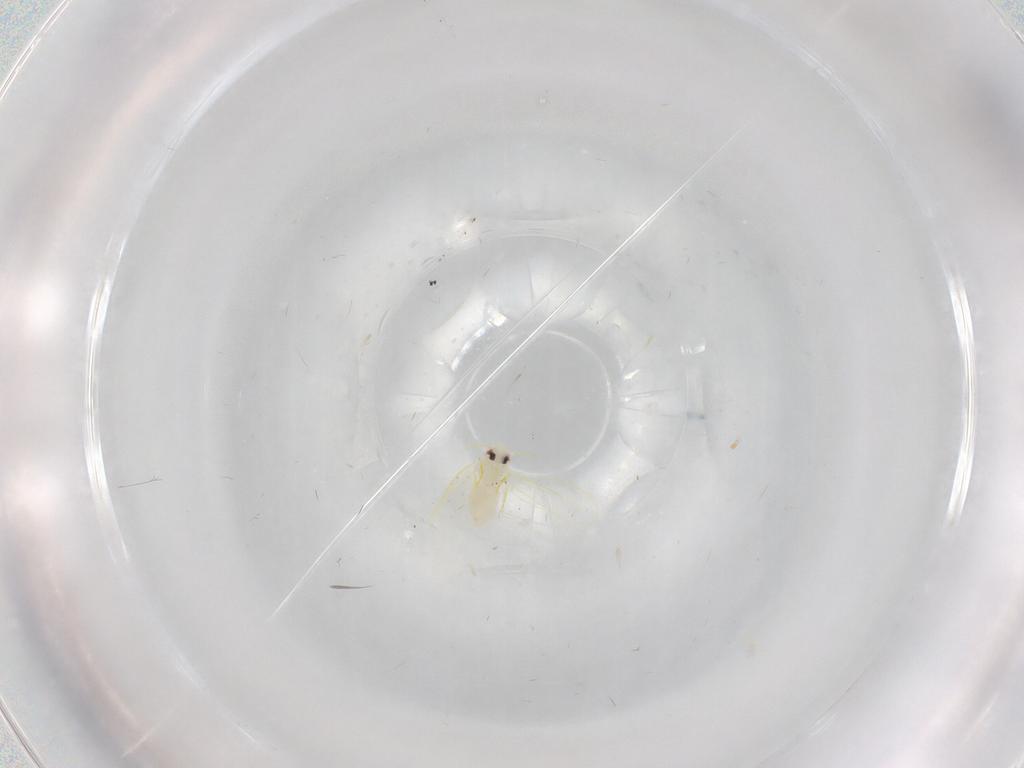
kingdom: Animalia
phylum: Arthropoda
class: Insecta
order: Hemiptera
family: Aleyrodidae
